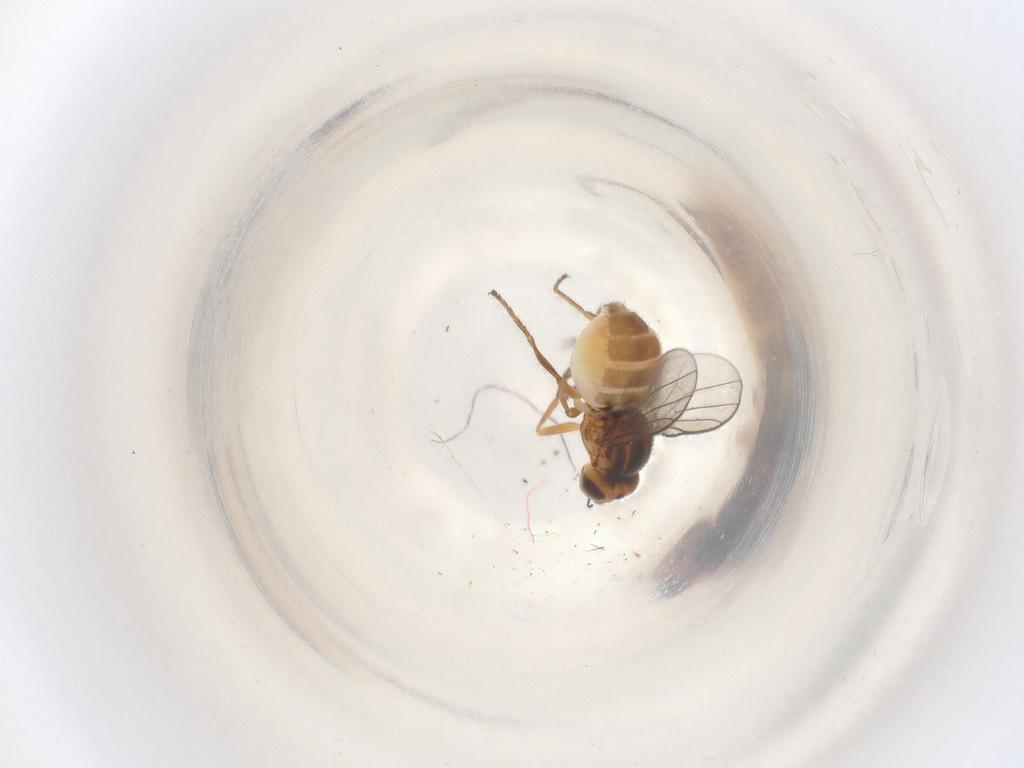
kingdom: Animalia
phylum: Arthropoda
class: Insecta
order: Diptera
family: Chloropidae
